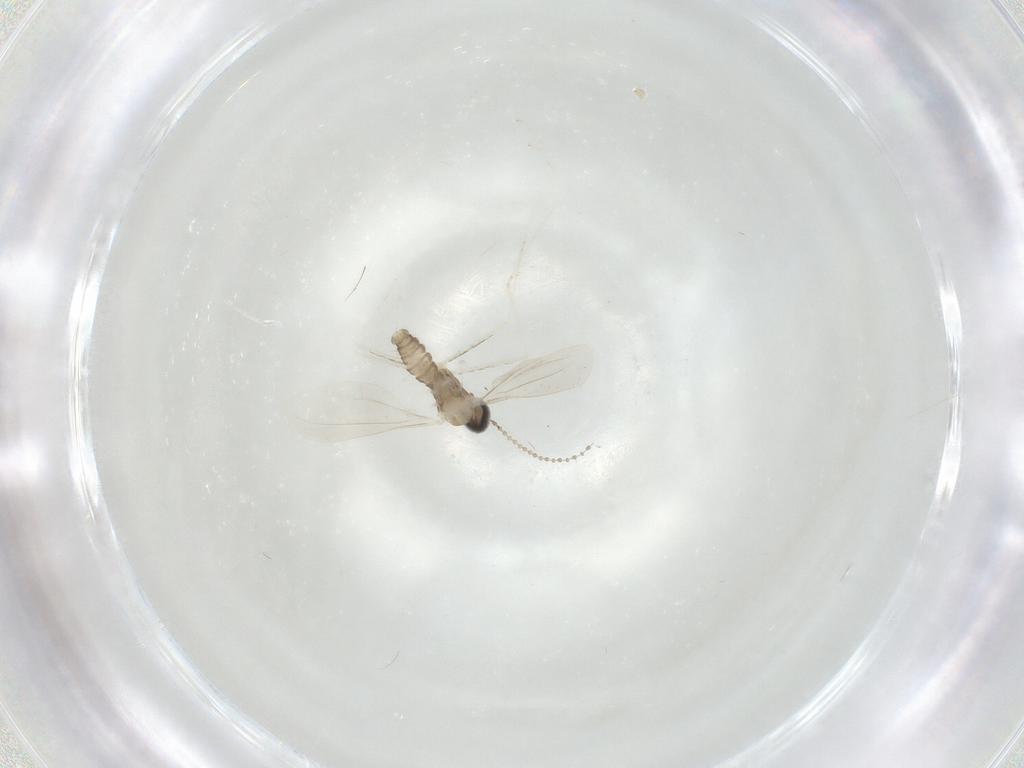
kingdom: Animalia
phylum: Arthropoda
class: Insecta
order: Diptera
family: Cecidomyiidae
